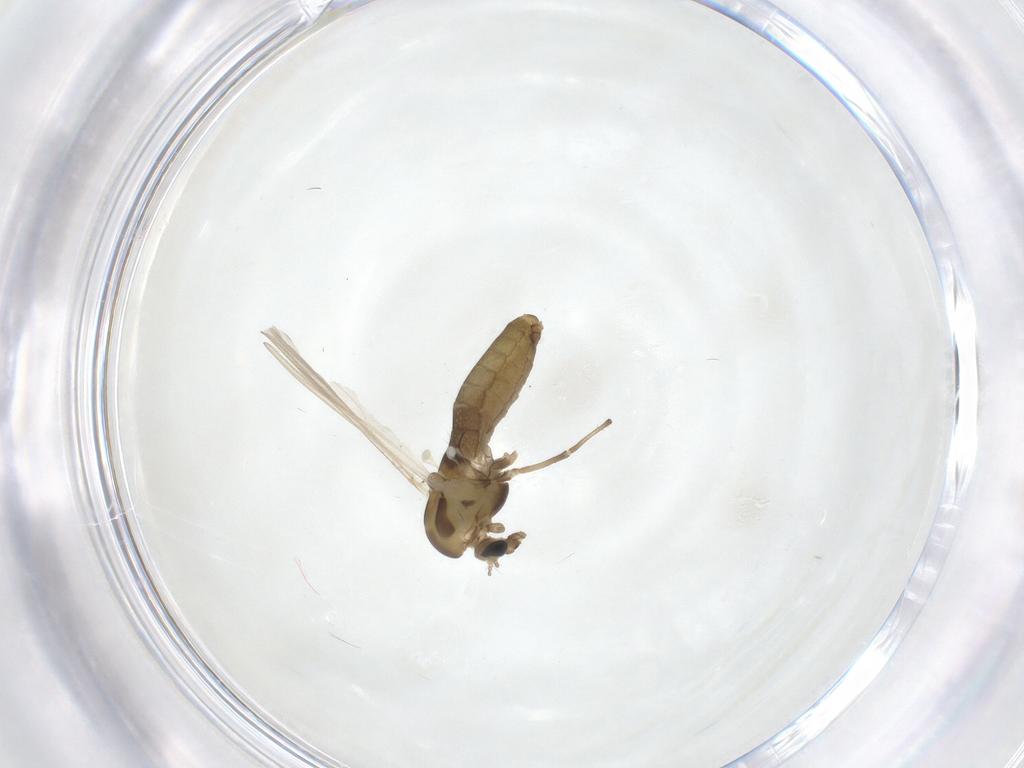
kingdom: Animalia
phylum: Arthropoda
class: Insecta
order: Diptera
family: Chironomidae
